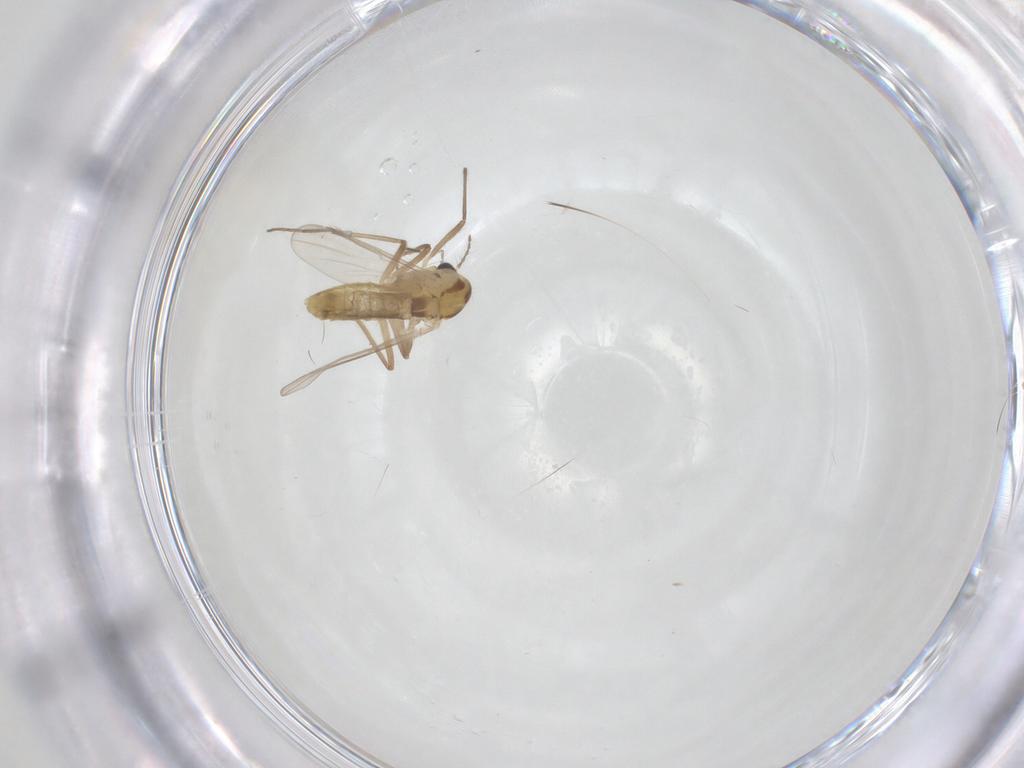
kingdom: Animalia
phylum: Arthropoda
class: Insecta
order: Diptera
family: Chironomidae
